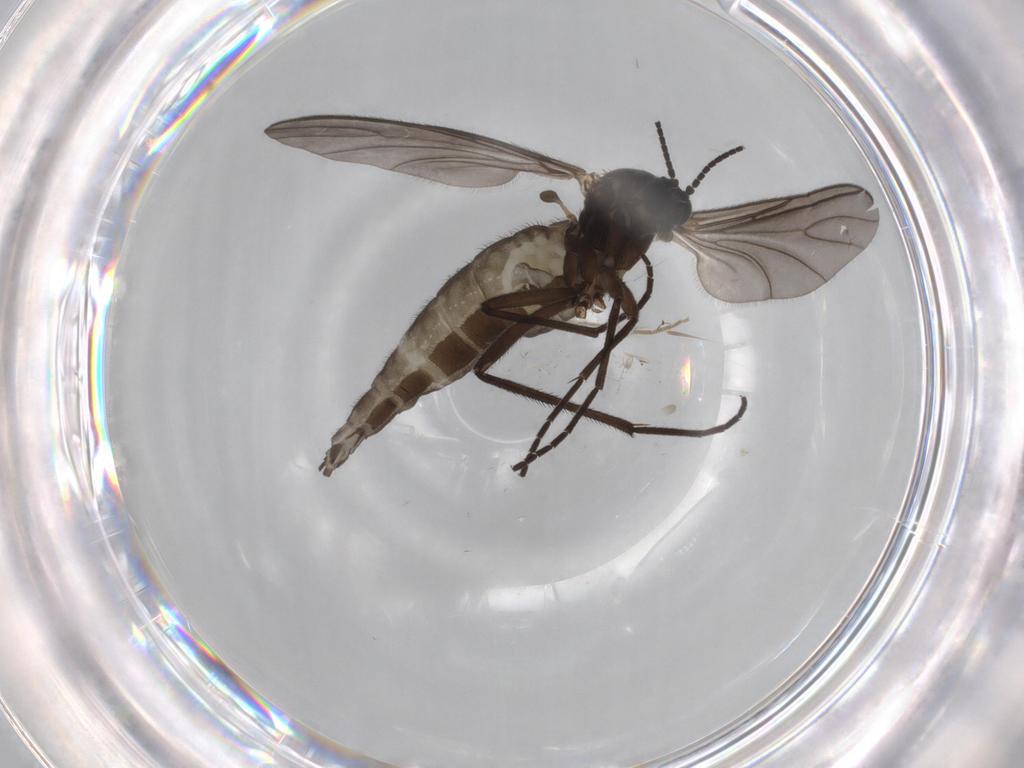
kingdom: Animalia
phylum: Arthropoda
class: Insecta
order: Diptera
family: Sciaridae
